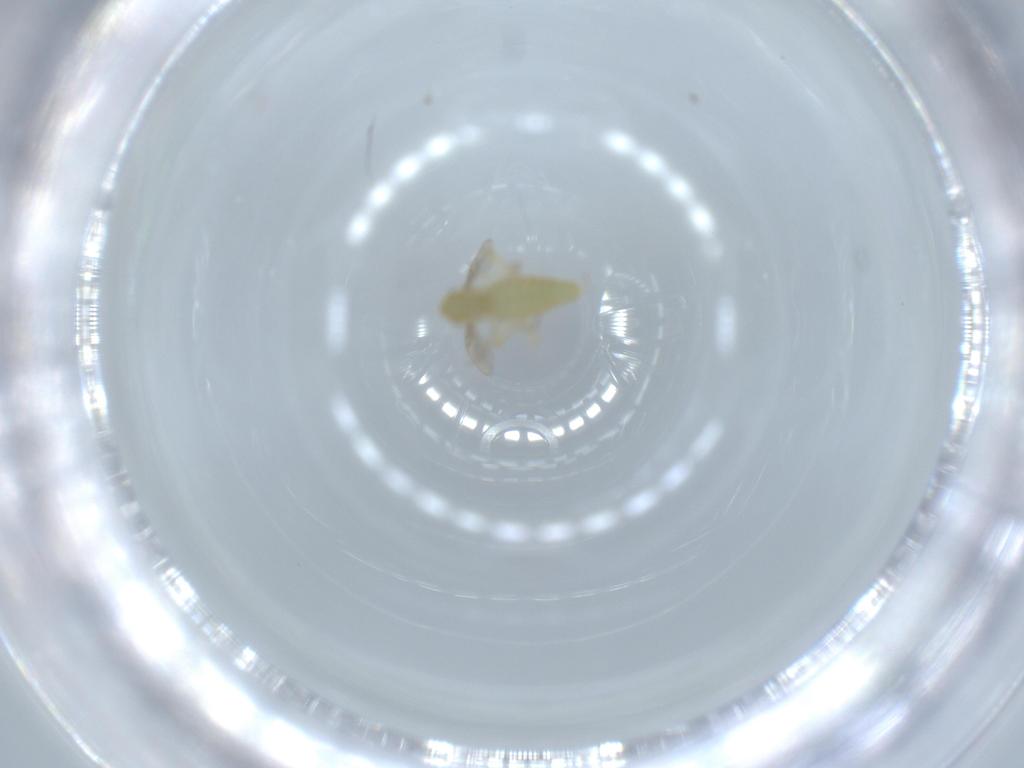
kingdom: Animalia
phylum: Arthropoda
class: Insecta
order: Diptera
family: Chironomidae
